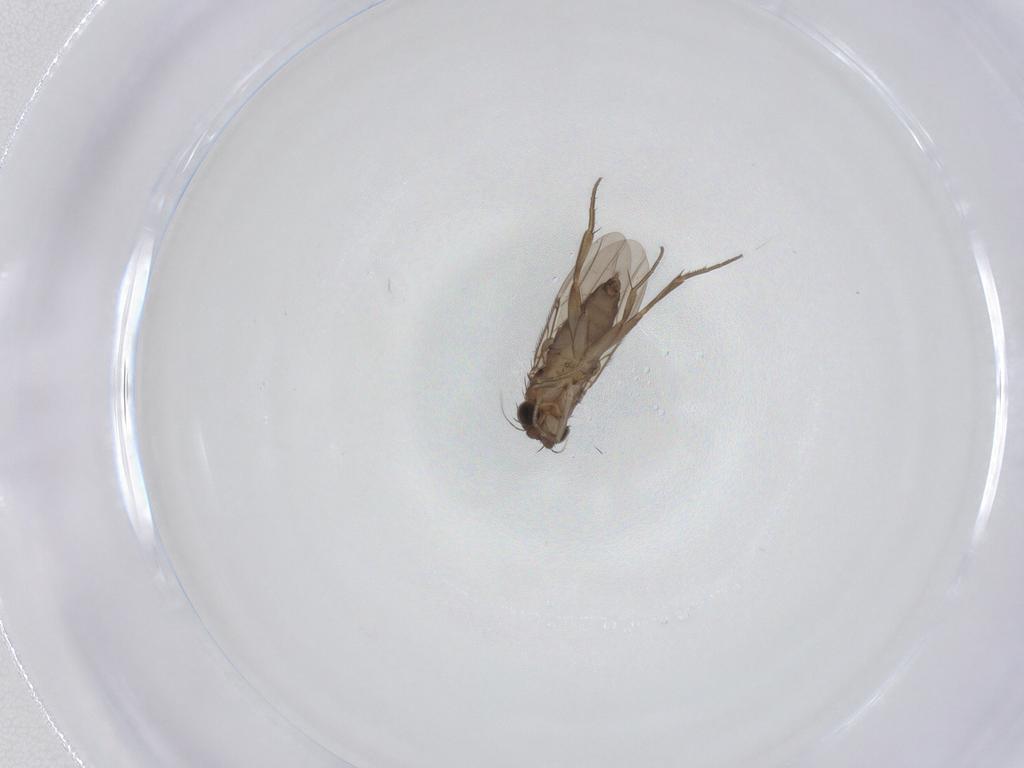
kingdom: Animalia
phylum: Arthropoda
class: Insecta
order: Diptera
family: Phoridae
